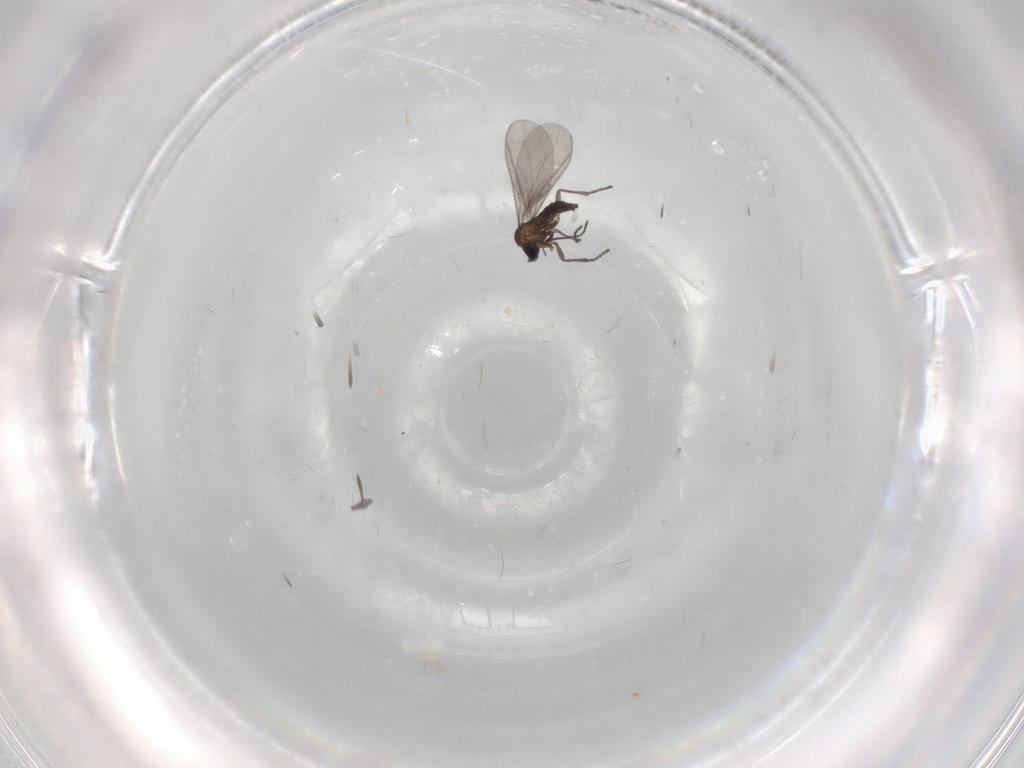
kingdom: Animalia
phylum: Arthropoda
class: Insecta
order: Diptera
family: Sciaridae
